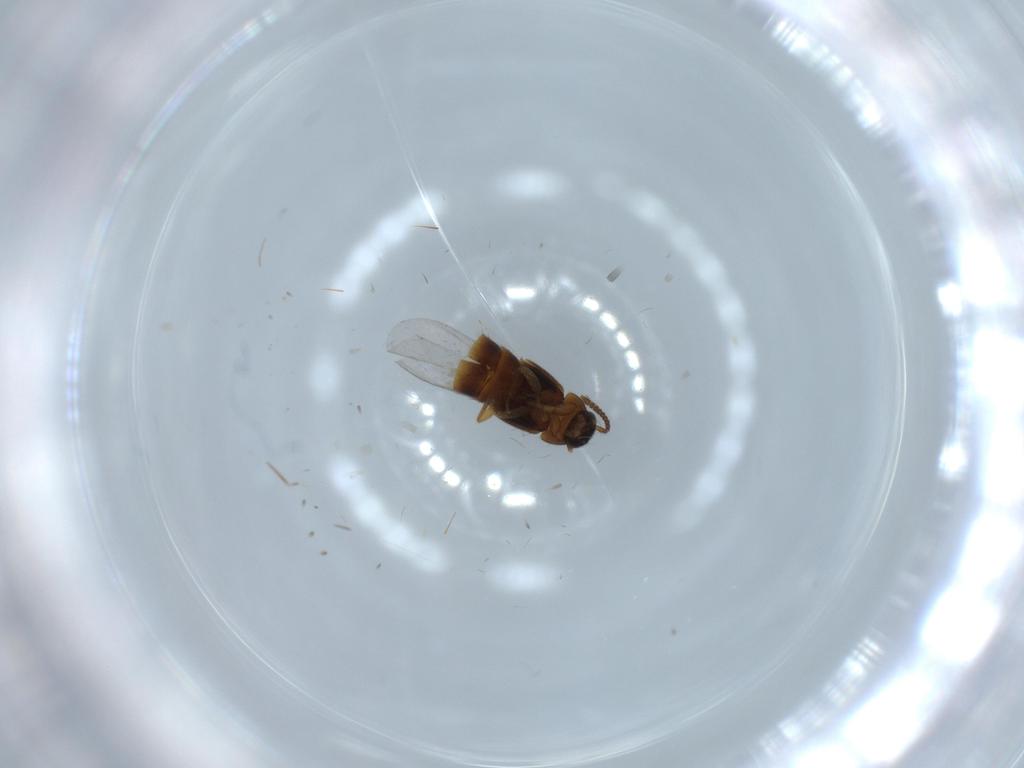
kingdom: Animalia
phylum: Arthropoda
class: Insecta
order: Coleoptera
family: Staphylinidae
